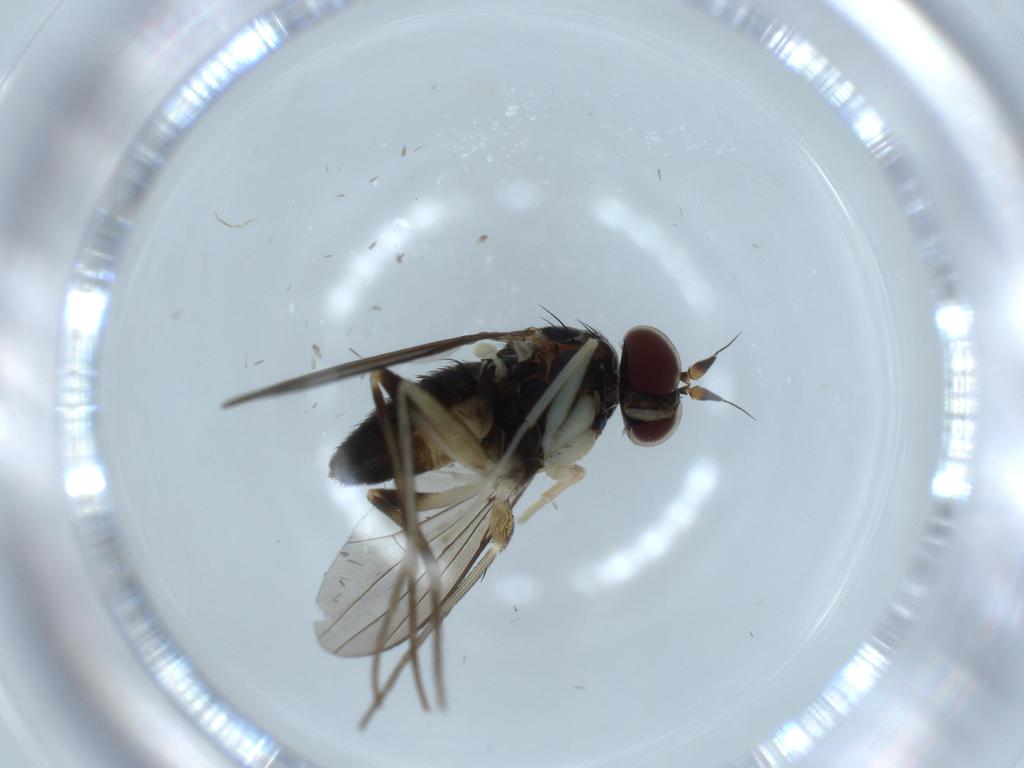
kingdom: Animalia
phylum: Arthropoda
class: Insecta
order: Diptera
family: Dolichopodidae
